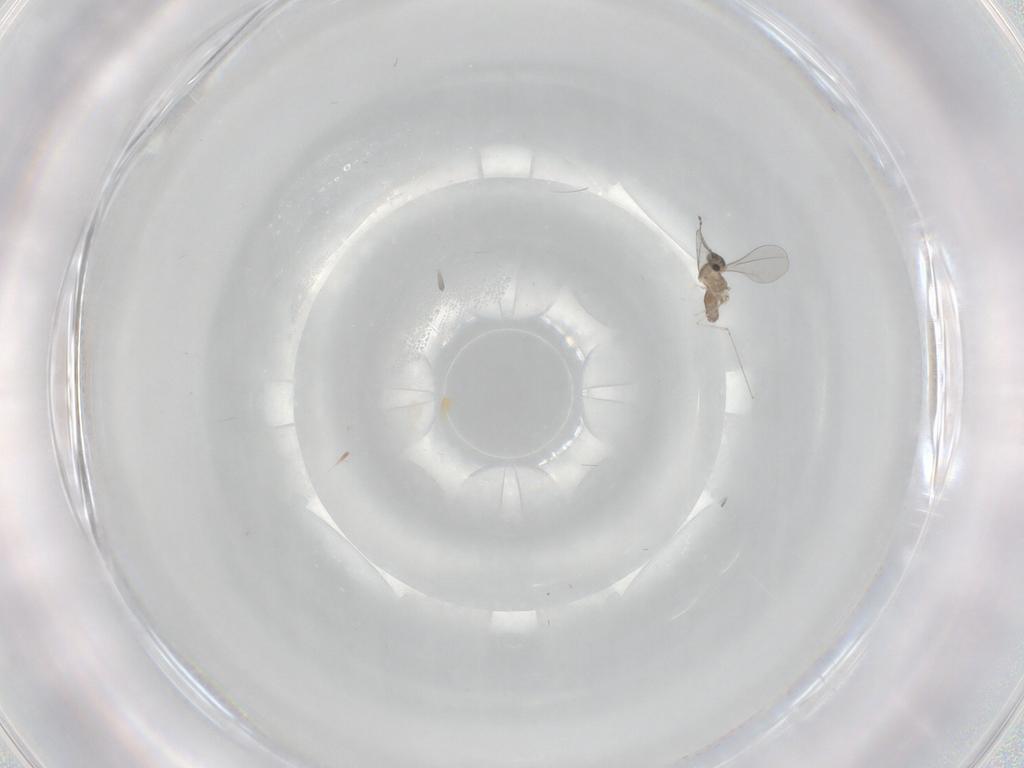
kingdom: Animalia
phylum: Arthropoda
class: Insecta
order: Diptera
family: Cecidomyiidae
